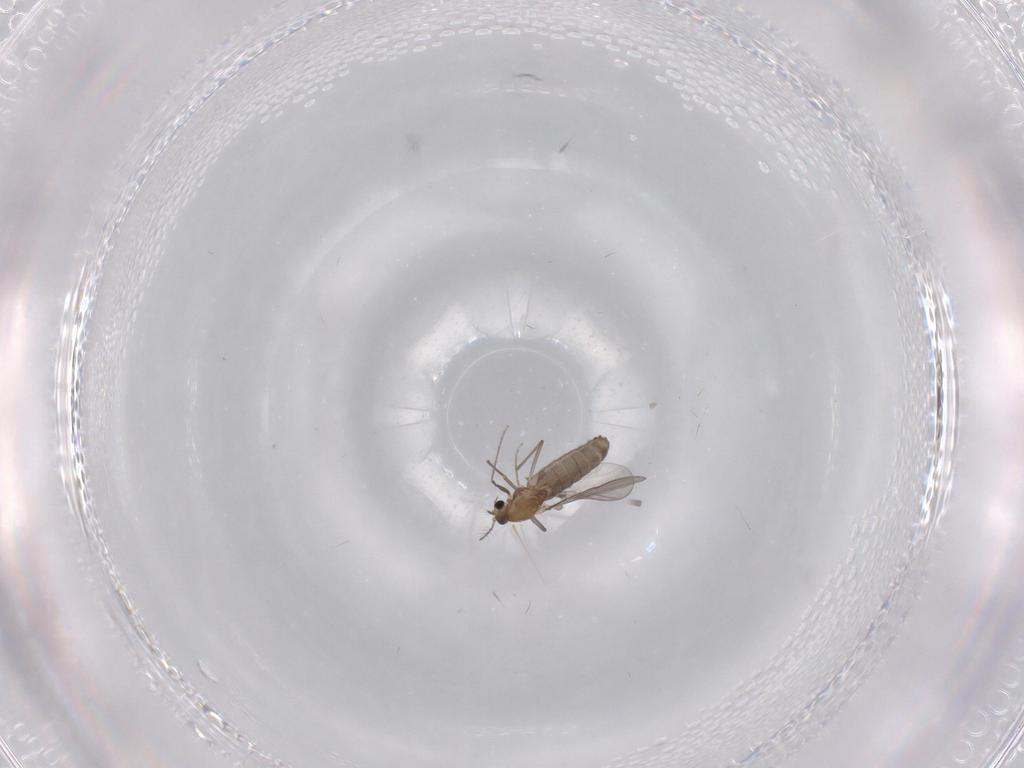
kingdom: Animalia
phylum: Arthropoda
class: Insecta
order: Diptera
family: Chironomidae
